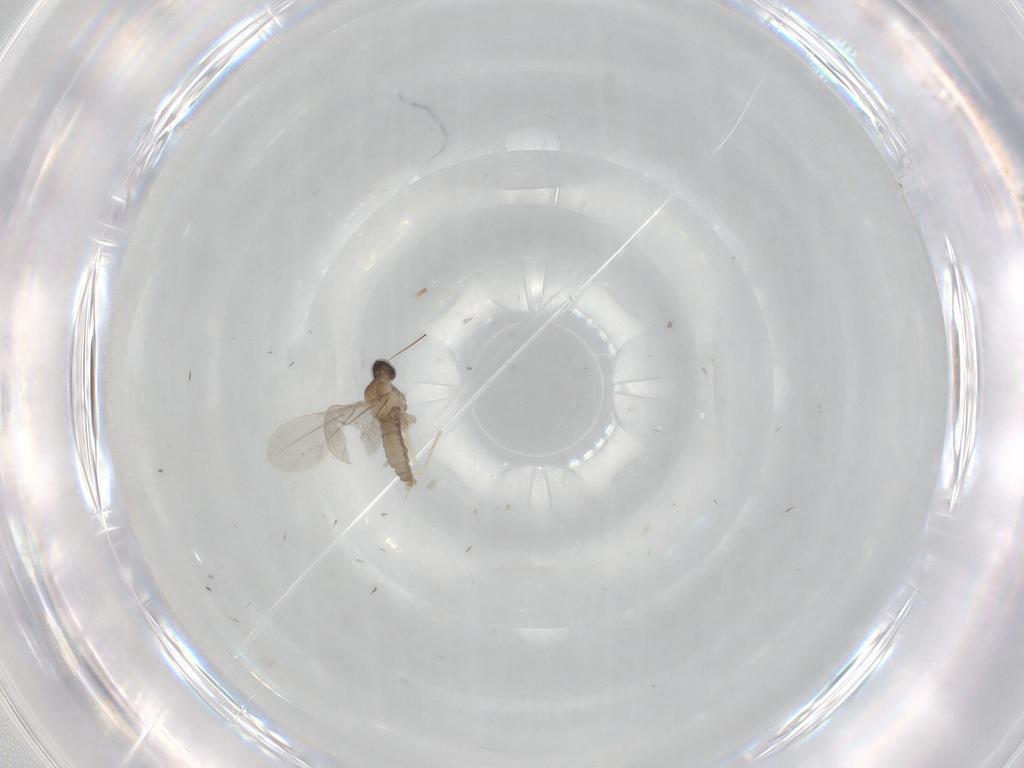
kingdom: Animalia
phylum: Arthropoda
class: Insecta
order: Diptera
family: Cecidomyiidae
